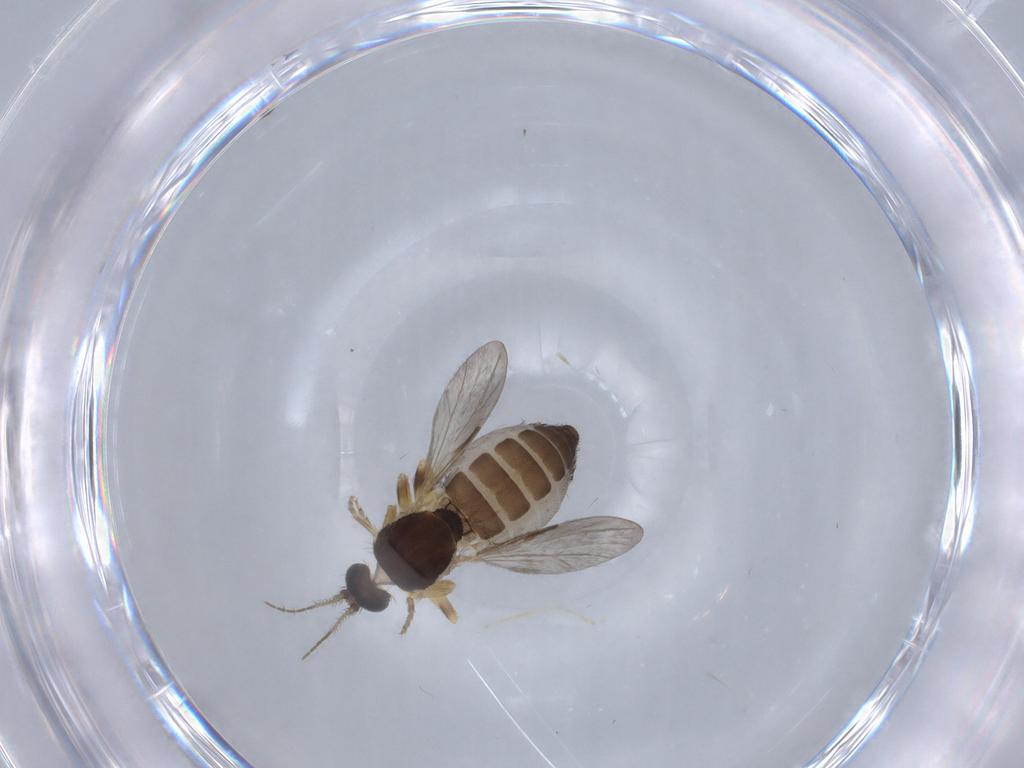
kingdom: Animalia
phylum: Arthropoda
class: Insecta
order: Diptera
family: Ceratopogonidae
